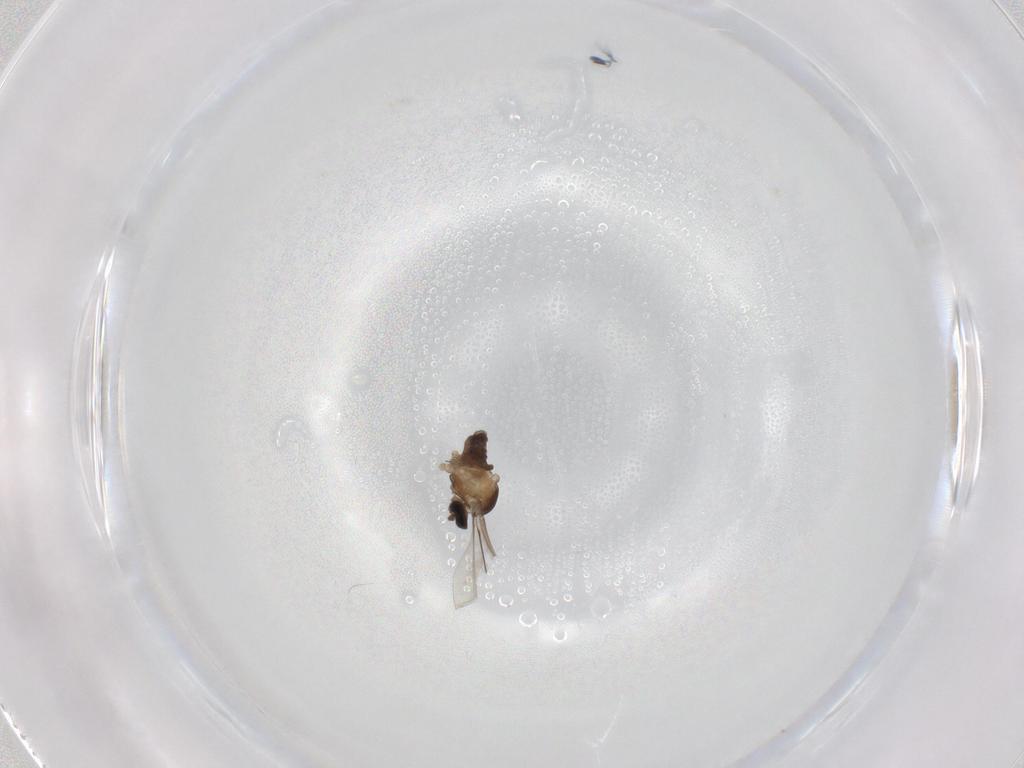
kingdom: Animalia
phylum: Arthropoda
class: Insecta
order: Diptera
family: Cecidomyiidae
